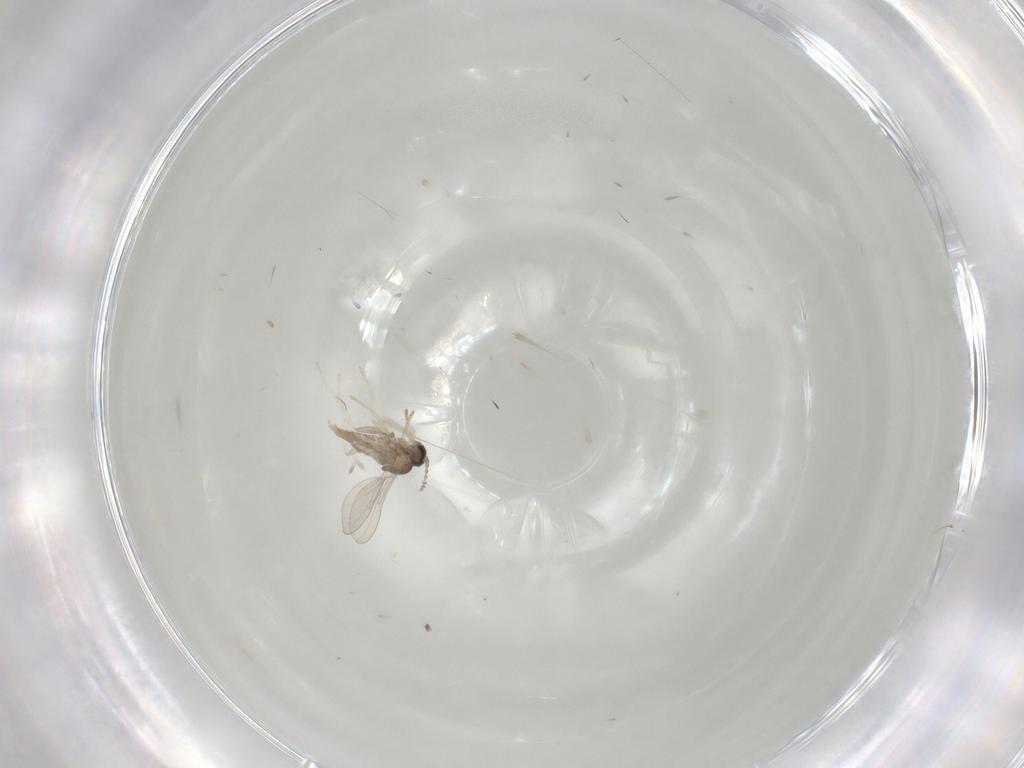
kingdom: Animalia
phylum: Arthropoda
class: Insecta
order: Diptera
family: Cecidomyiidae
